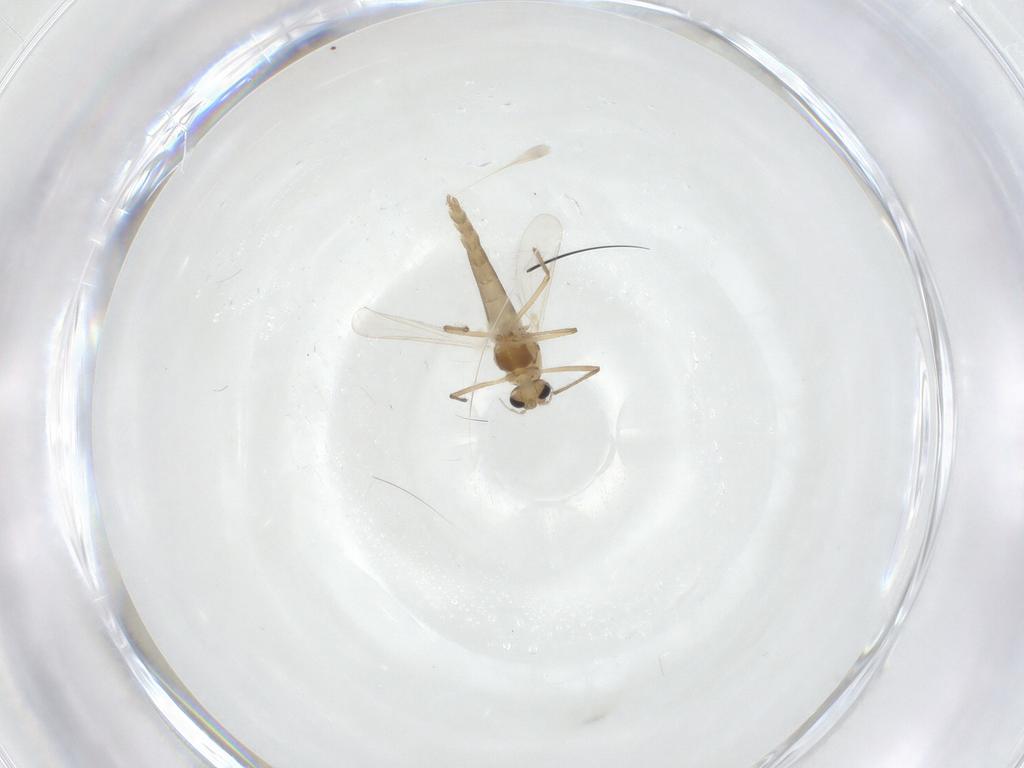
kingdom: Animalia
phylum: Arthropoda
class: Insecta
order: Diptera
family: Chironomidae
